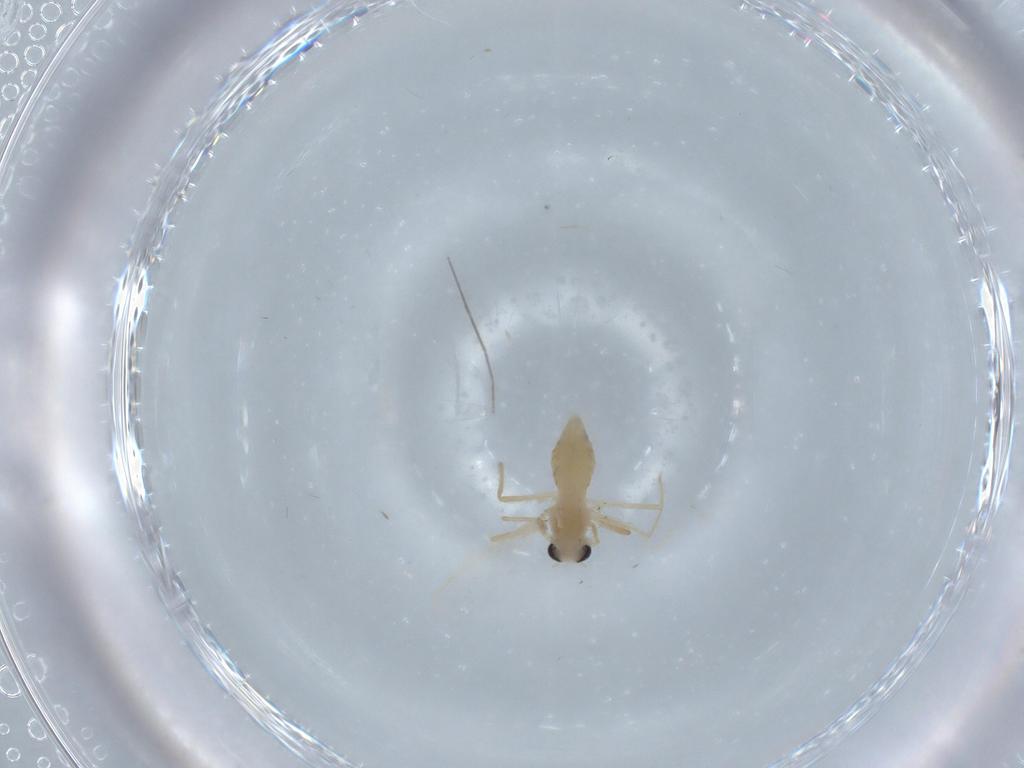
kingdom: Animalia
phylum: Arthropoda
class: Insecta
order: Diptera
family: Phoridae
